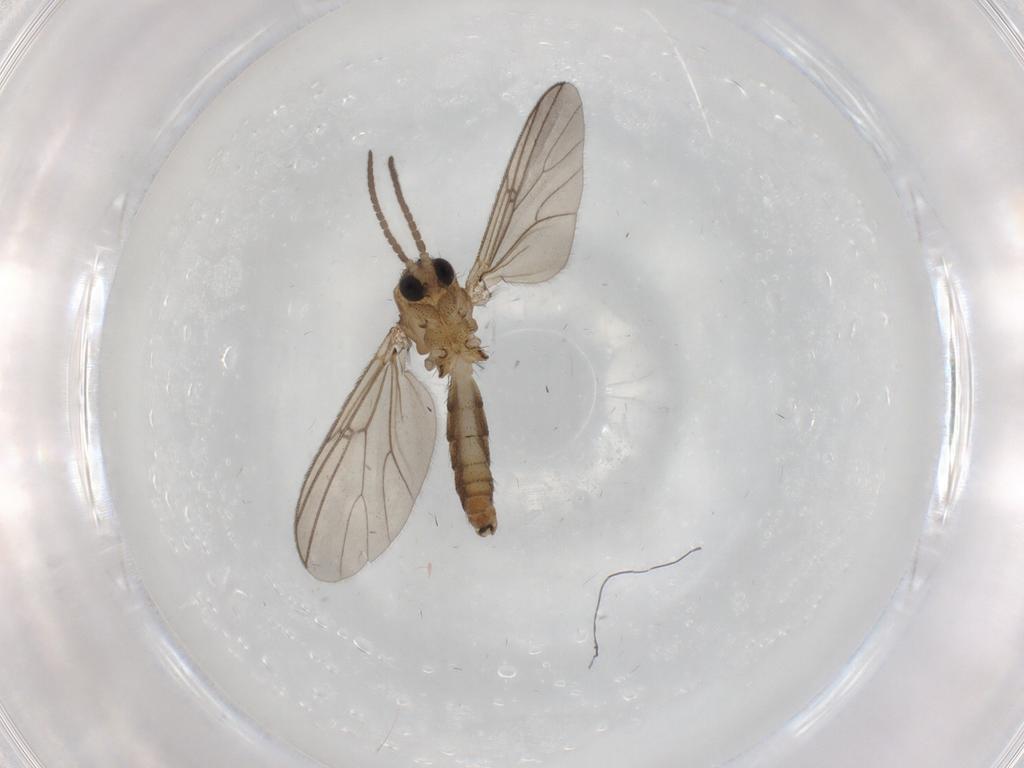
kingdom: Animalia
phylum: Arthropoda
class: Insecta
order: Diptera
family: Mycetophilidae
